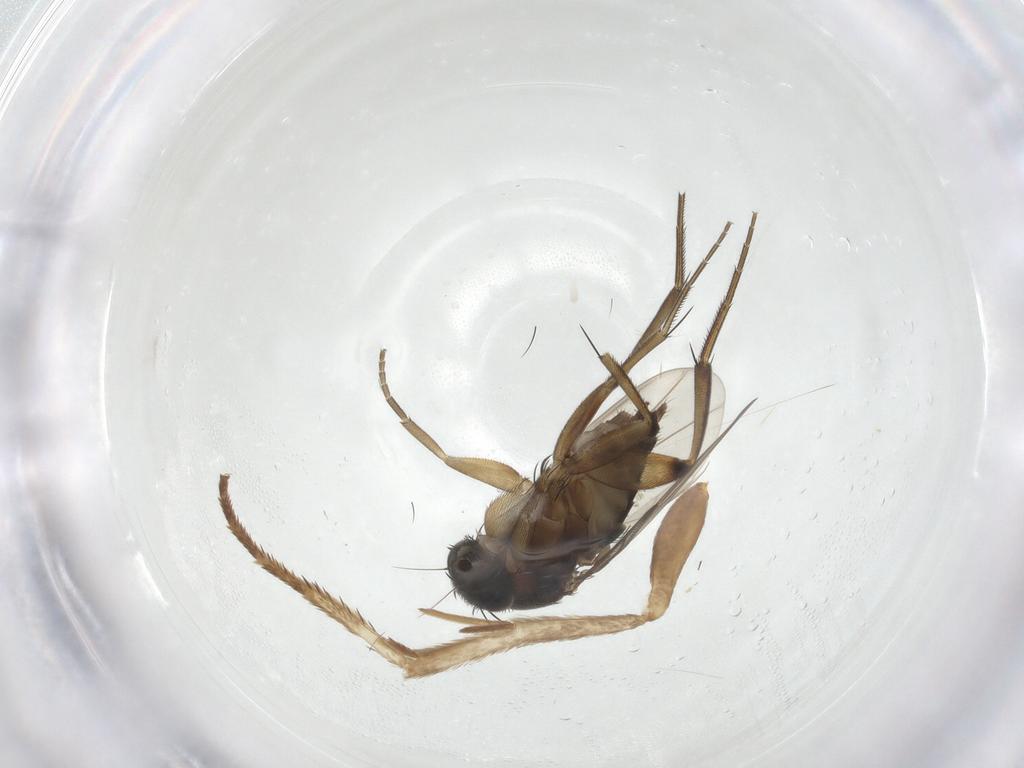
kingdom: Animalia
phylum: Arthropoda
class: Insecta
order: Diptera
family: Phoridae
